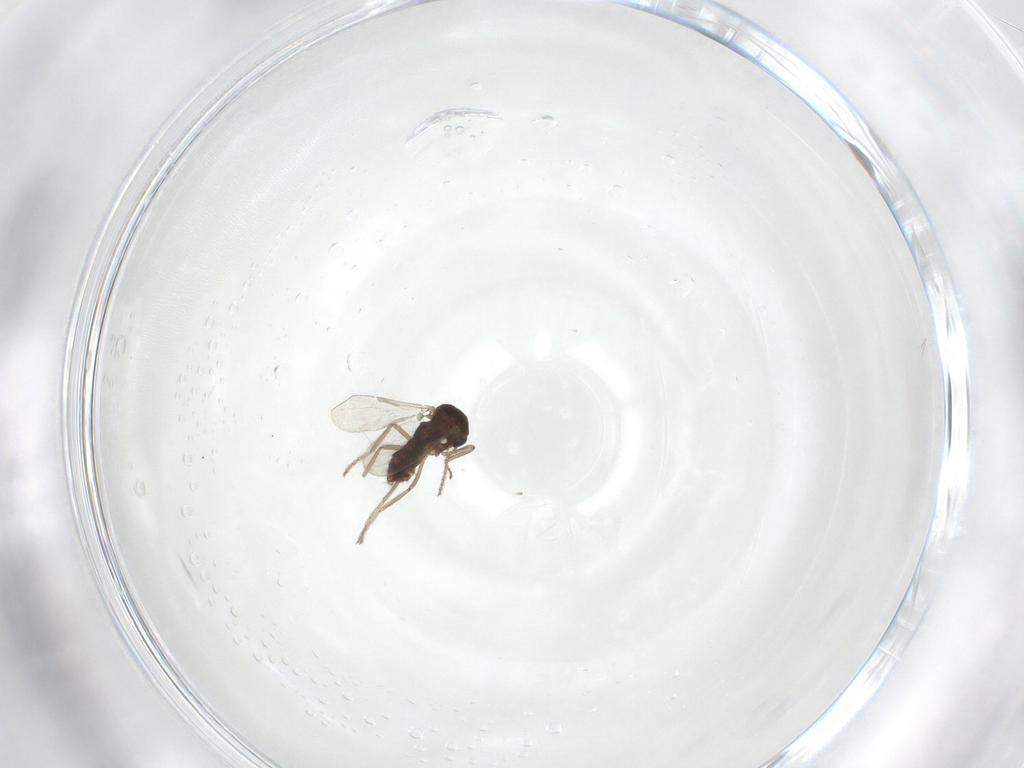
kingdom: Animalia
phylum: Arthropoda
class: Insecta
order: Diptera
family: Ceratopogonidae
